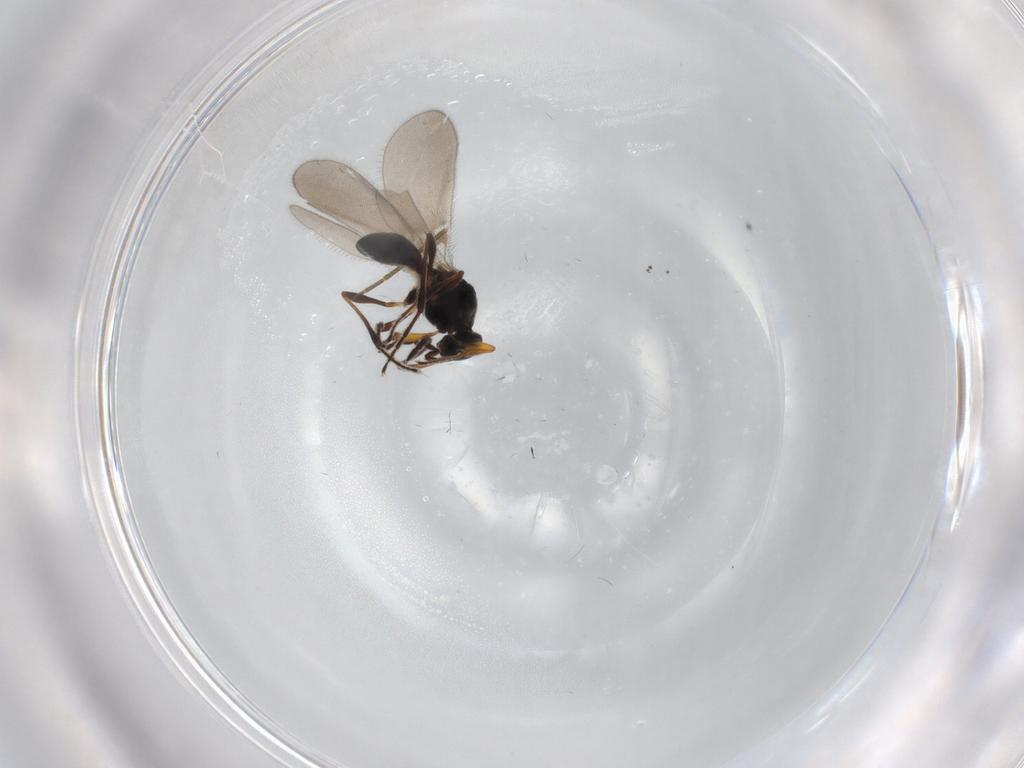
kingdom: Animalia
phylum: Arthropoda
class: Insecta
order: Hymenoptera
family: Platygastridae
